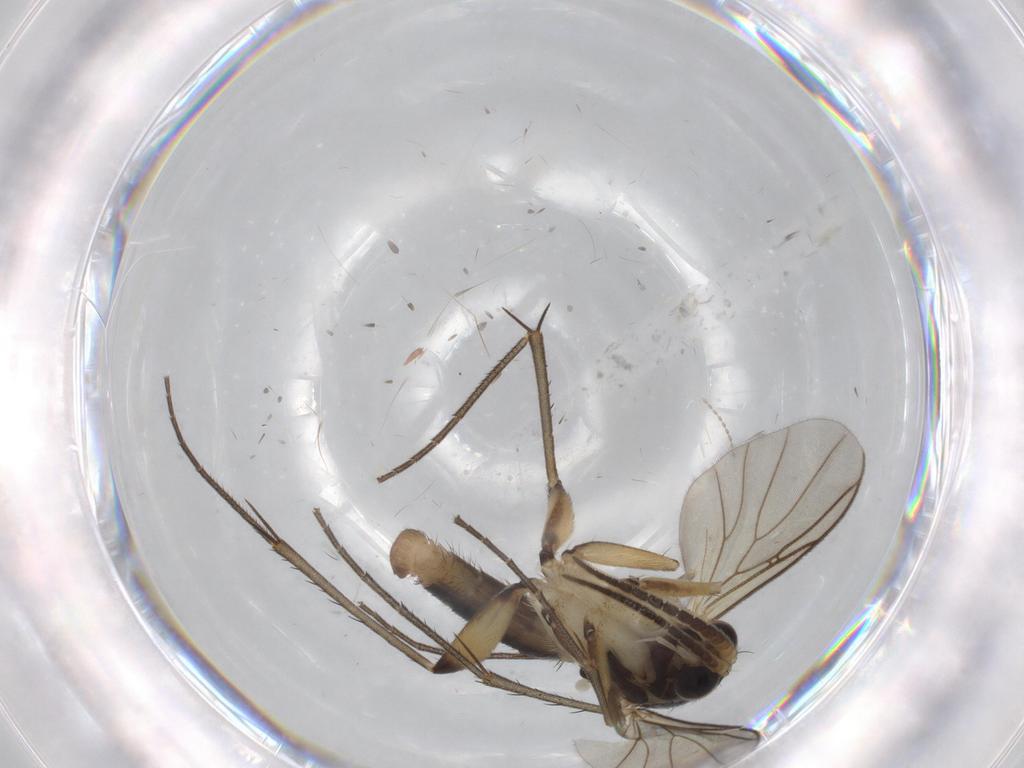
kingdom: Animalia
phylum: Arthropoda
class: Insecta
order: Diptera
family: Mycetophilidae
